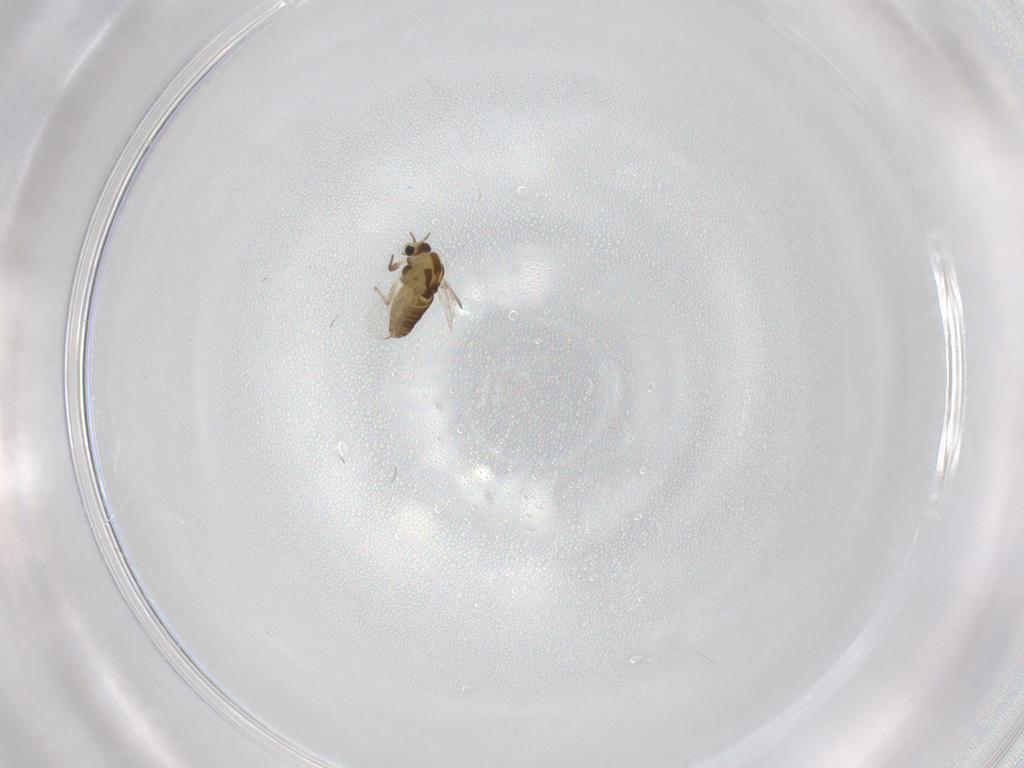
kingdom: Animalia
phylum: Arthropoda
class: Insecta
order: Diptera
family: Chironomidae
